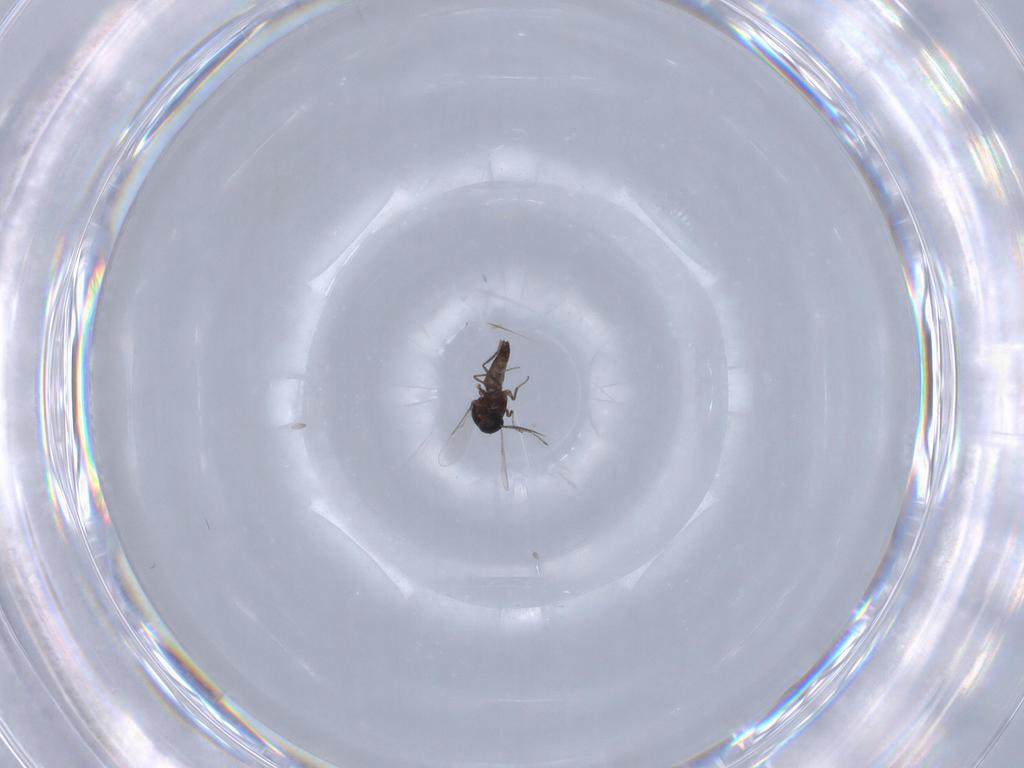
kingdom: Animalia
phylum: Arthropoda
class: Insecta
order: Diptera
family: Ceratopogonidae
